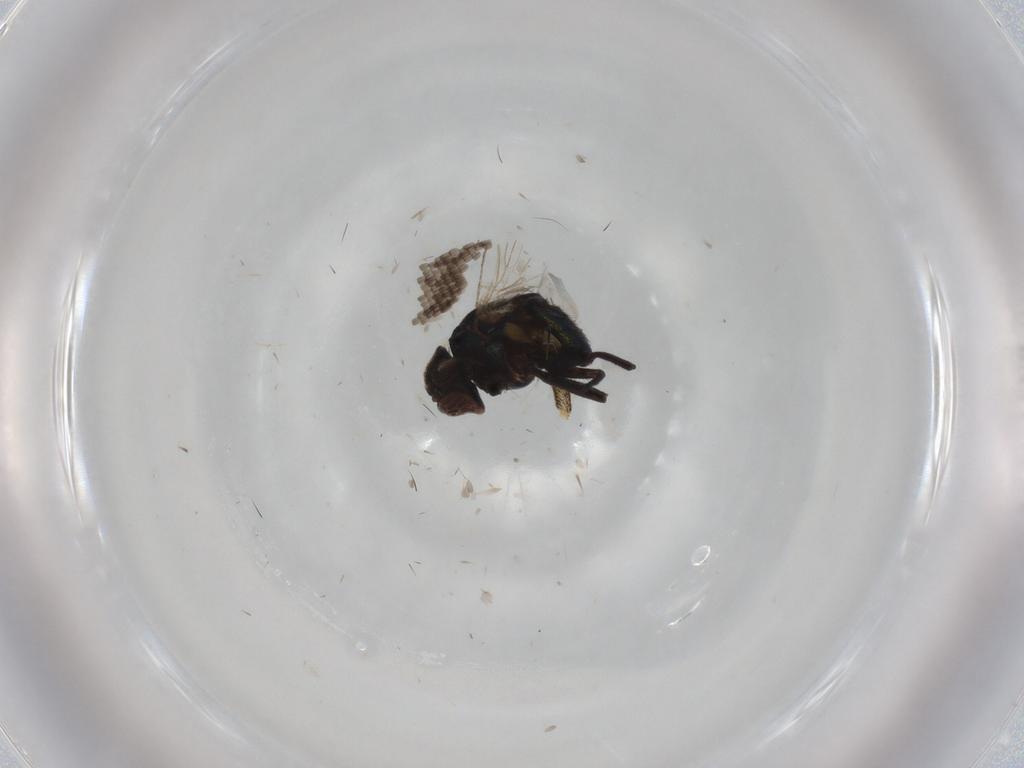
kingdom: Animalia
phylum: Arthropoda
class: Insecta
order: Diptera
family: Agromyzidae
